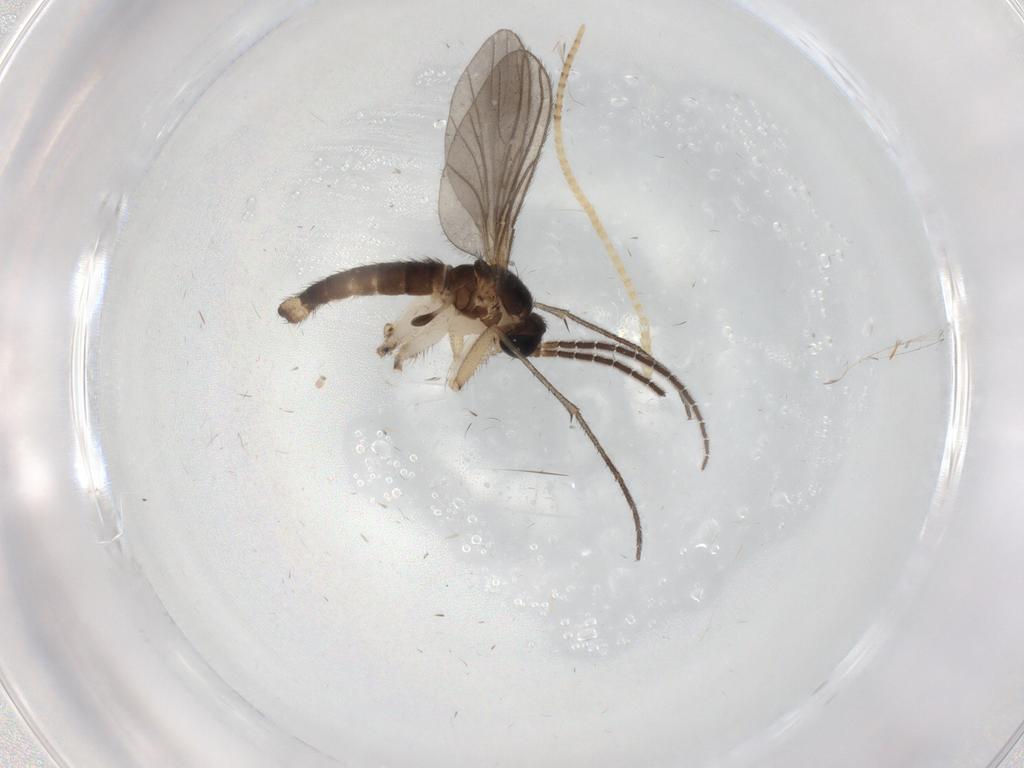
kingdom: Animalia
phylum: Arthropoda
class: Insecta
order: Diptera
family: Sciaridae
